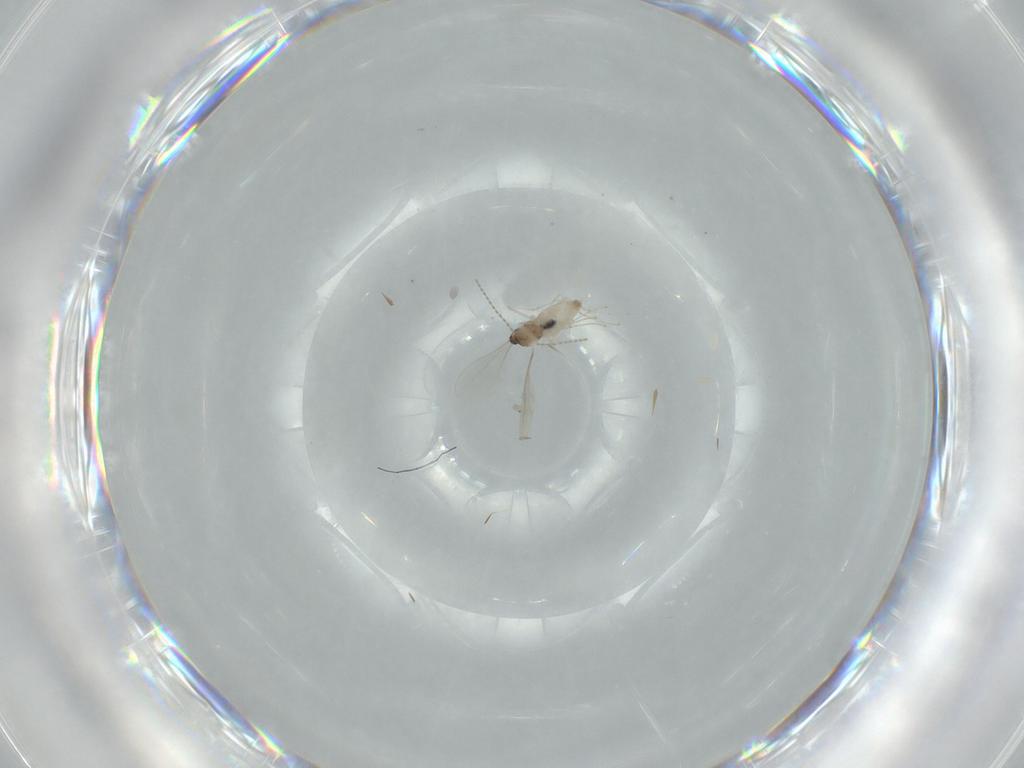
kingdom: Animalia
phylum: Arthropoda
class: Insecta
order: Diptera
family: Cecidomyiidae
